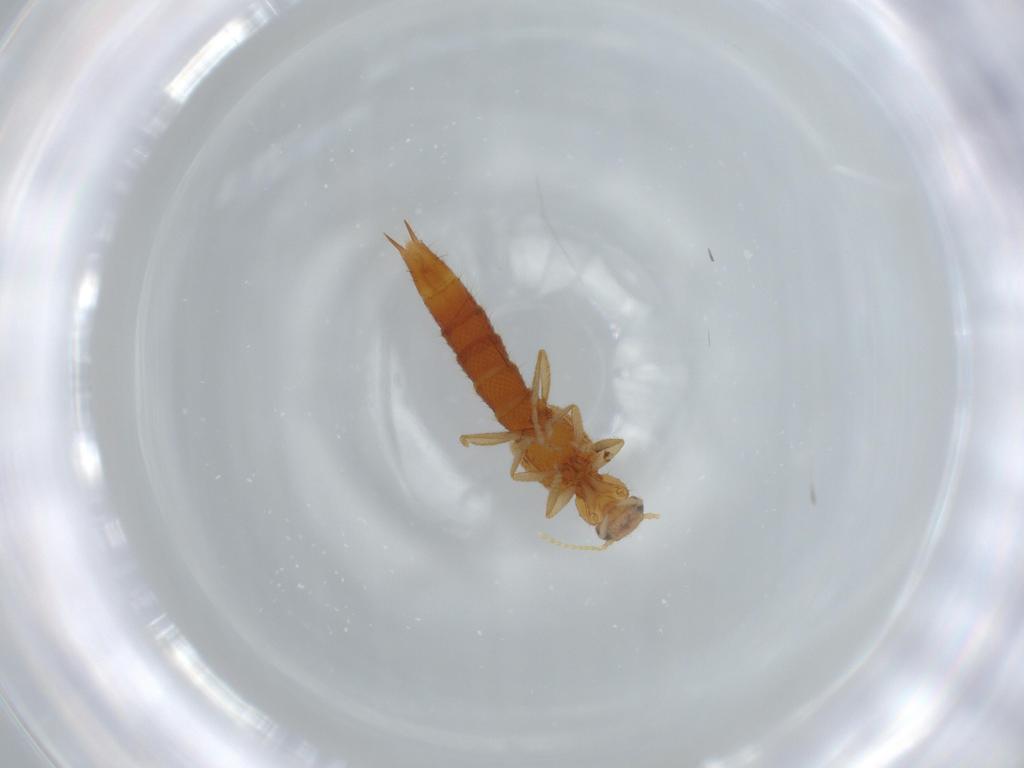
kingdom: Animalia
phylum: Arthropoda
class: Insecta
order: Coleoptera
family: Staphylinidae
